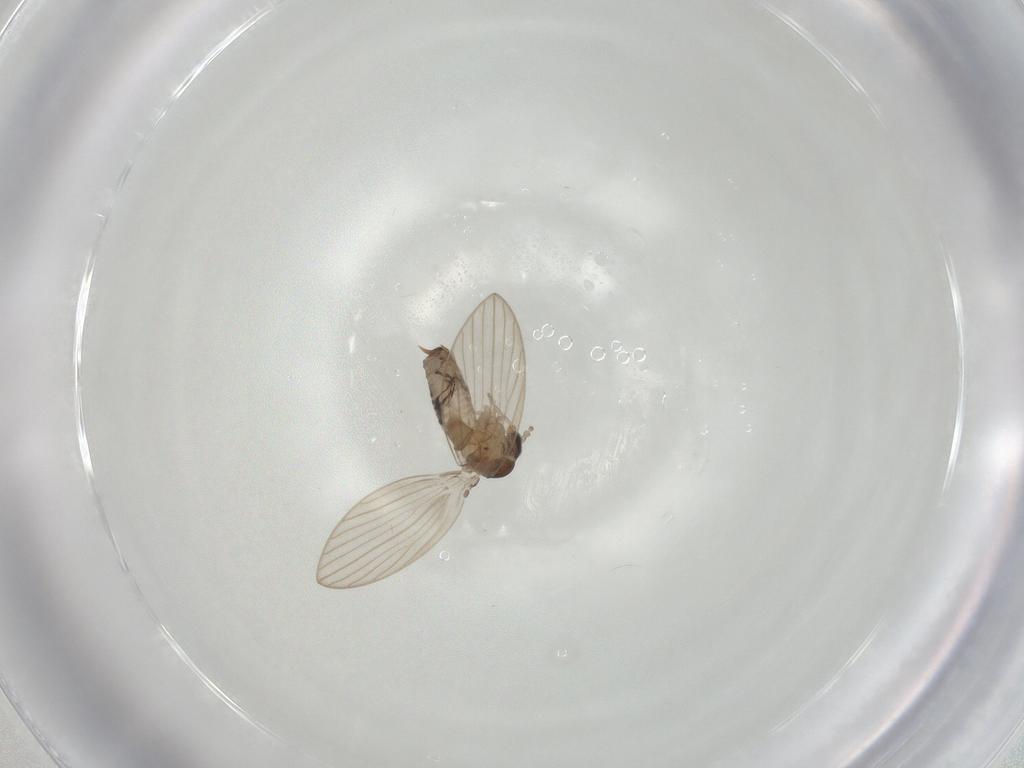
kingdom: Animalia
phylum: Arthropoda
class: Insecta
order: Diptera
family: Psychodidae
